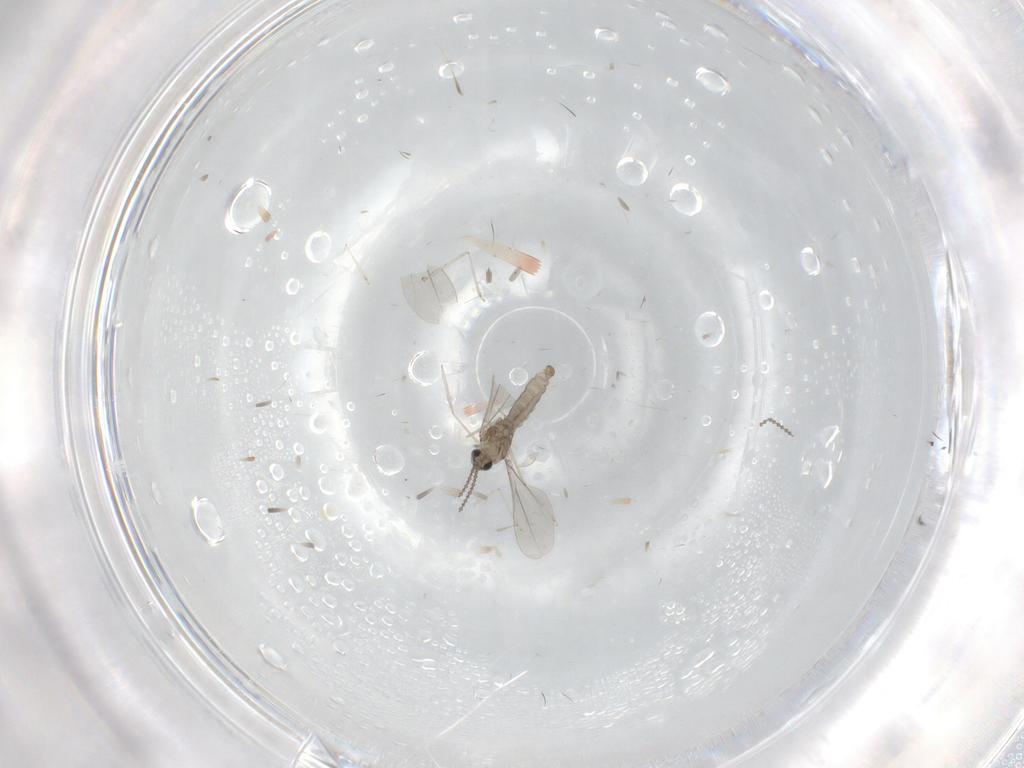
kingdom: Animalia
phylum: Arthropoda
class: Insecta
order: Diptera
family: Cecidomyiidae
